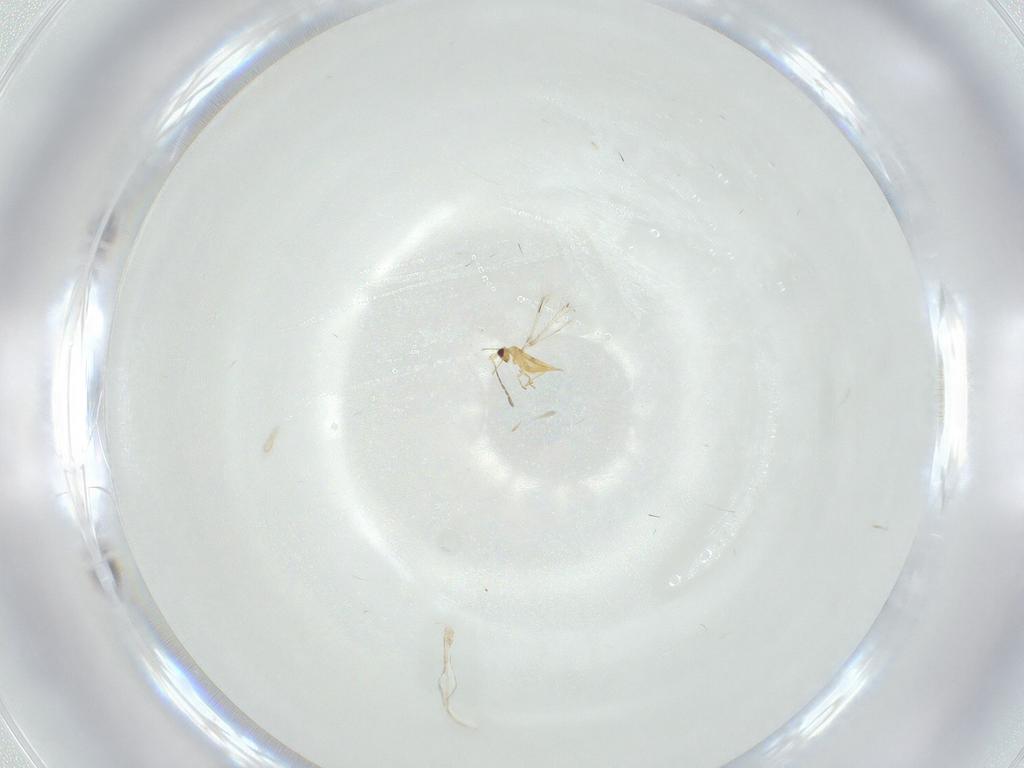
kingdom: Animalia
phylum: Arthropoda
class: Insecta
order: Hymenoptera
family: Mymaridae
